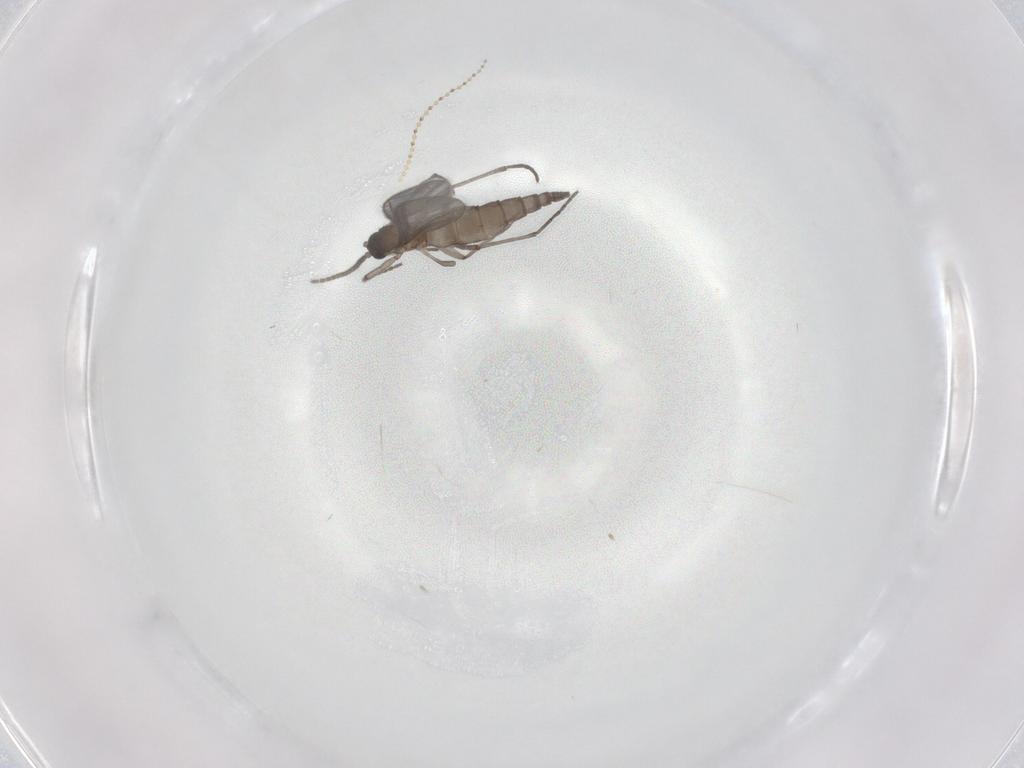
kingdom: Animalia
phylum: Arthropoda
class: Insecta
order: Diptera
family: Sciaridae
